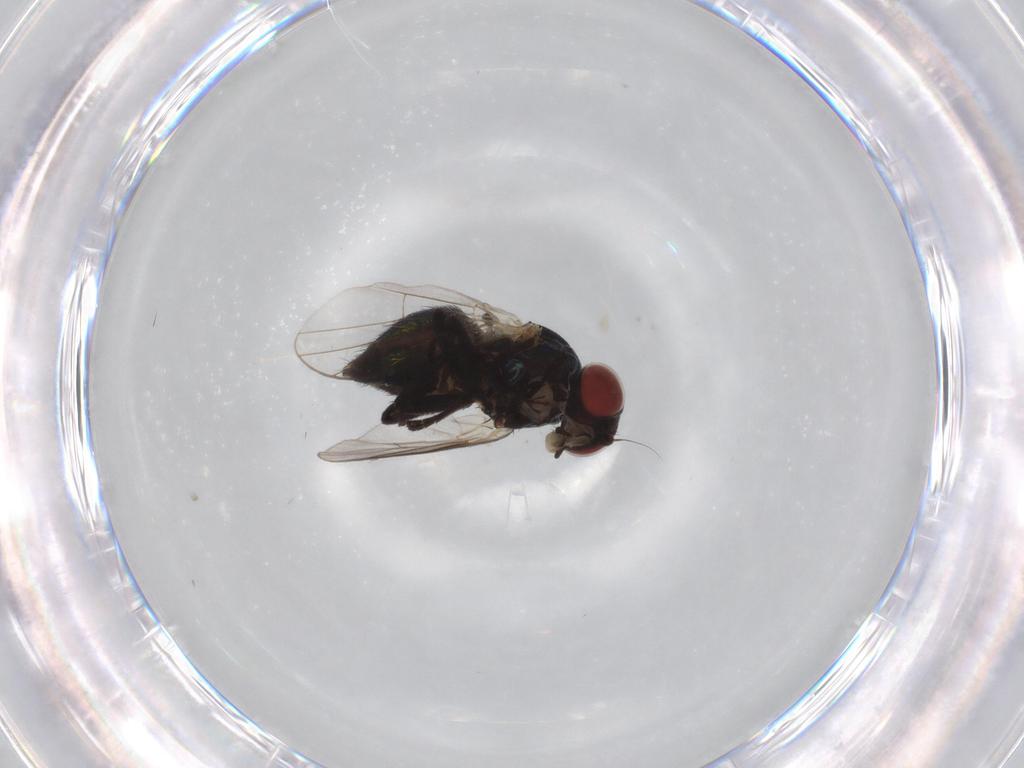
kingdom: Animalia
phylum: Arthropoda
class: Insecta
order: Diptera
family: Agromyzidae
